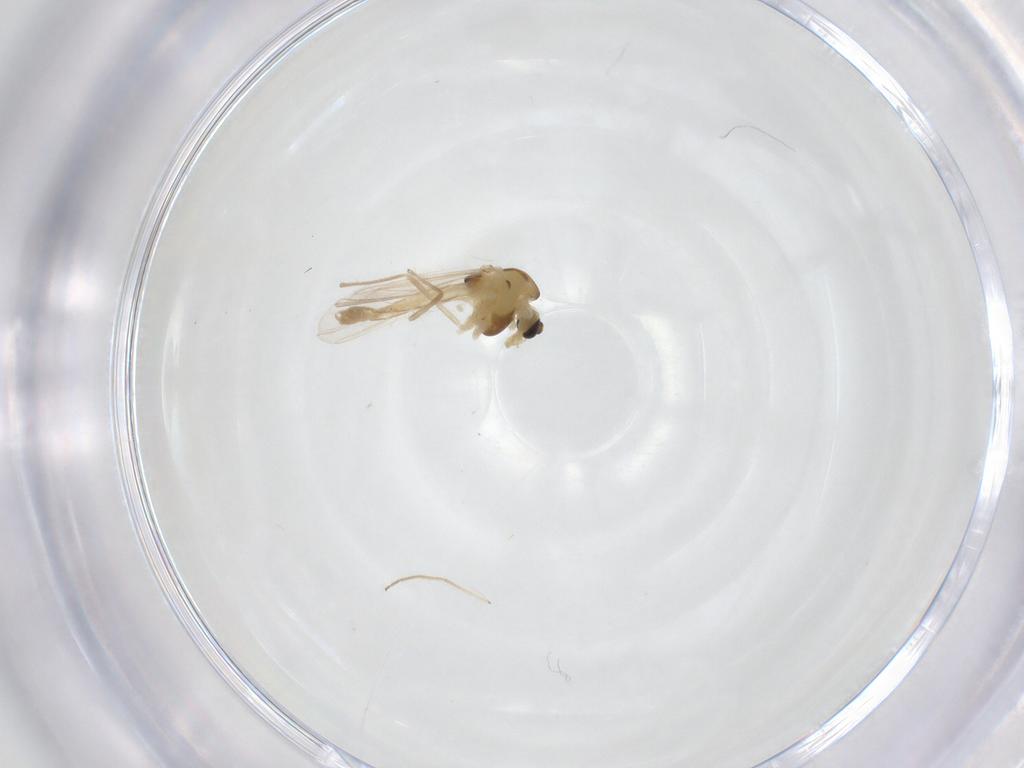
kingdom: Animalia
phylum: Arthropoda
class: Insecta
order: Diptera
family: Chironomidae
